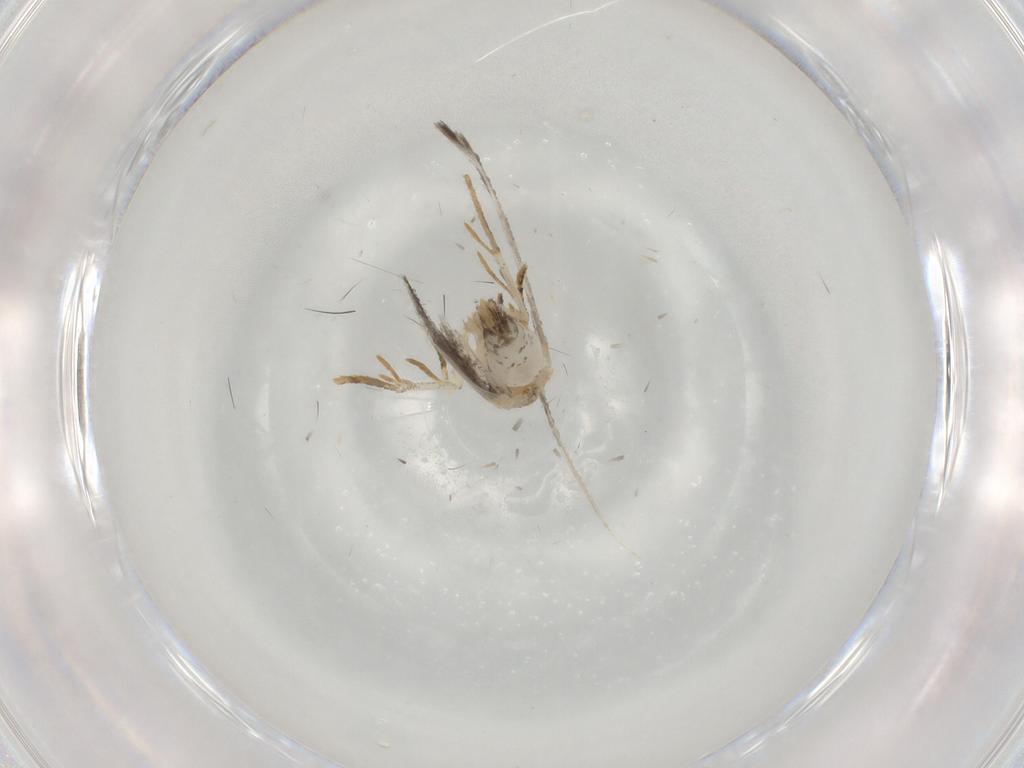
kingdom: Animalia
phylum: Arthropoda
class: Insecta
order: Lepidoptera
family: Tineidae
